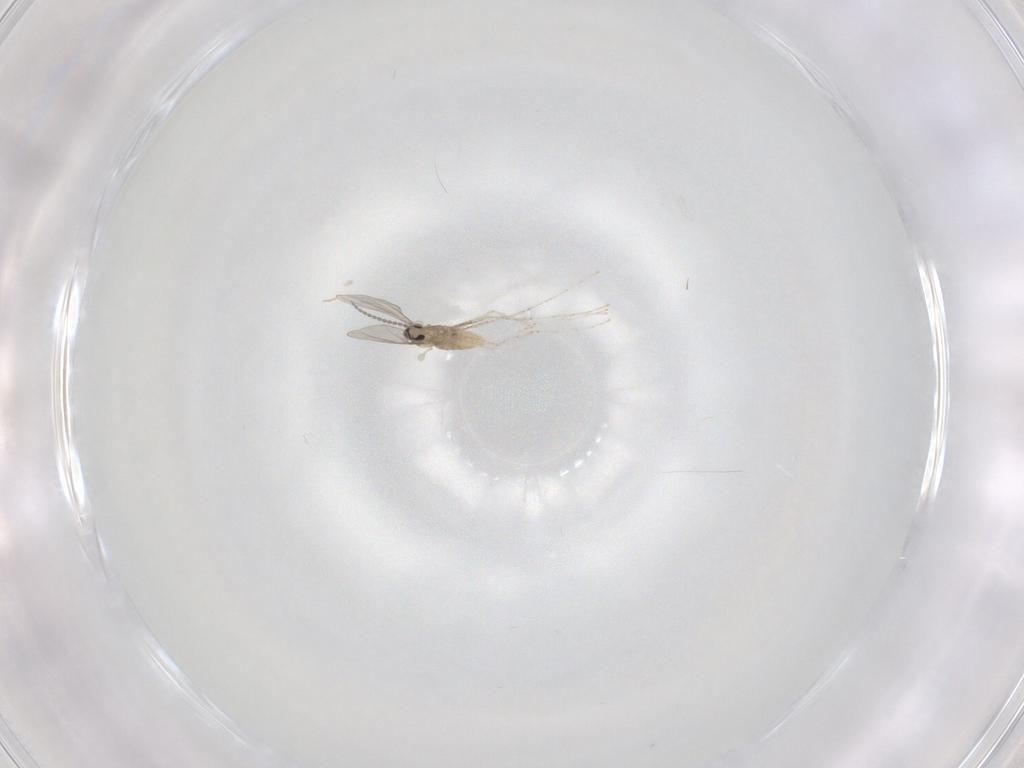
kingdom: Animalia
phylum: Arthropoda
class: Insecta
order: Diptera
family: Cecidomyiidae
